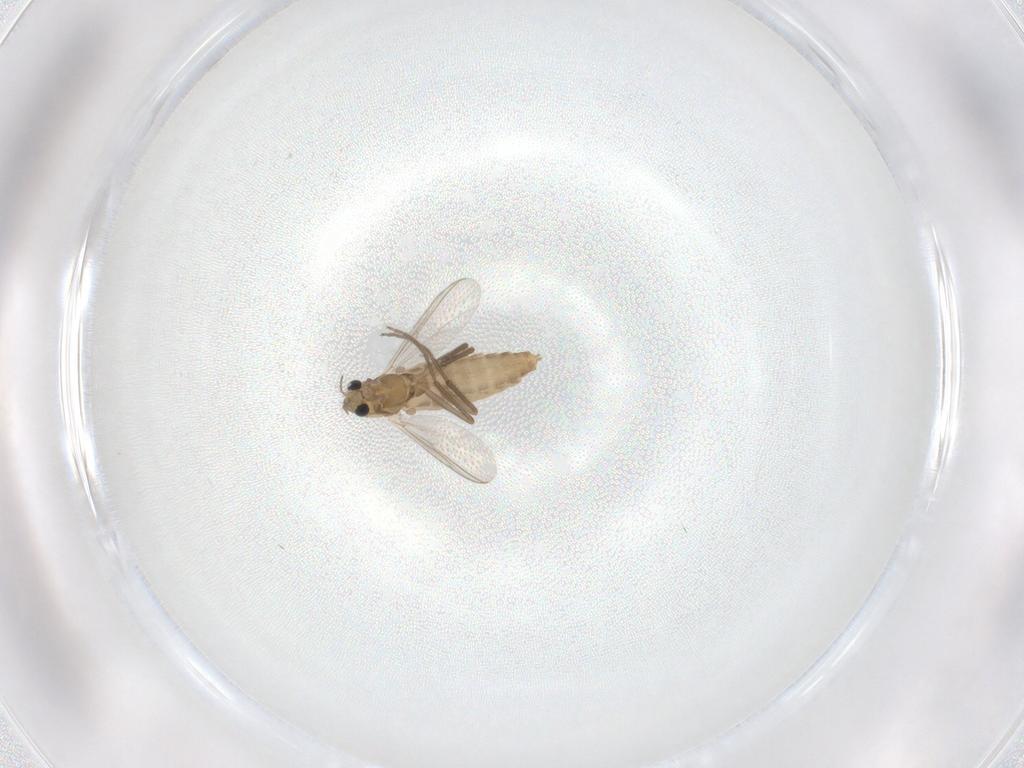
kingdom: Animalia
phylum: Arthropoda
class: Insecta
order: Diptera
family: Chironomidae
